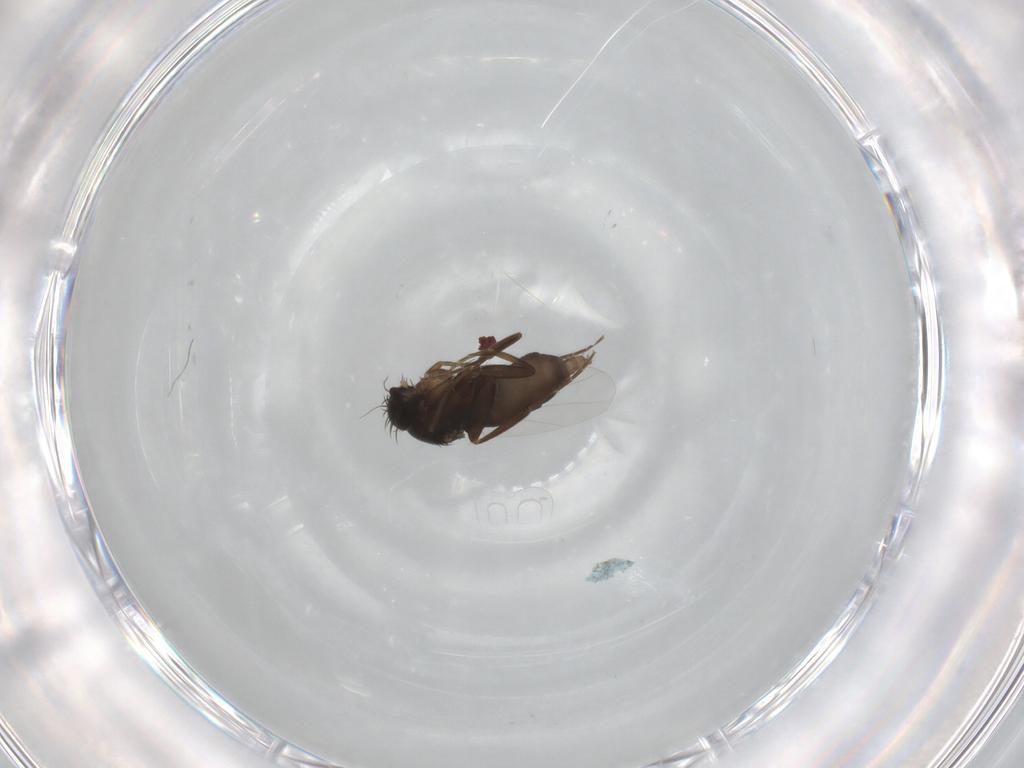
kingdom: Animalia
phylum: Arthropoda
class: Insecta
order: Diptera
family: Phoridae
